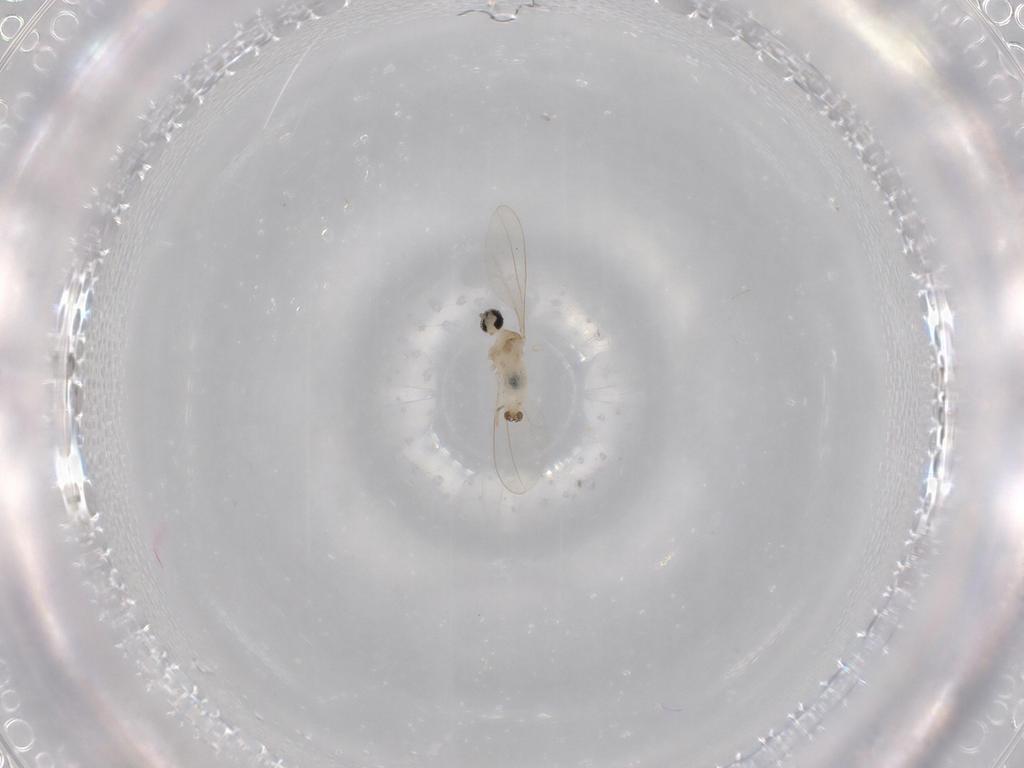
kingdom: Animalia
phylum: Arthropoda
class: Insecta
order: Diptera
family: Cecidomyiidae
